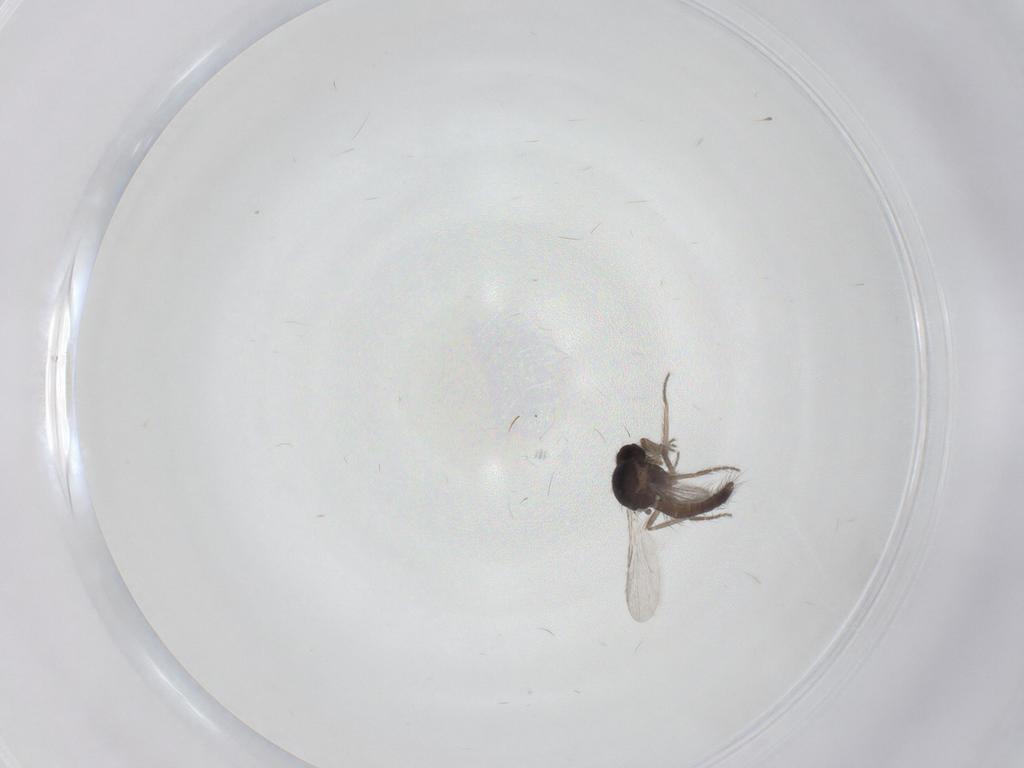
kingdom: Animalia
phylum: Arthropoda
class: Insecta
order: Diptera
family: Ceratopogonidae
